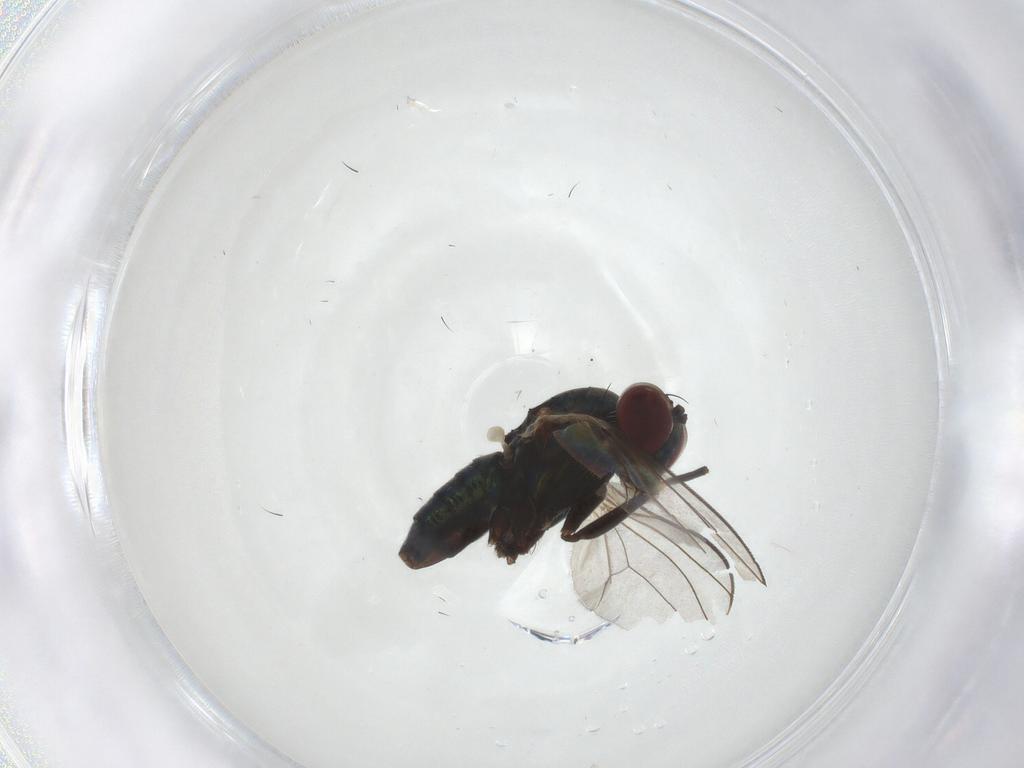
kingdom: Animalia
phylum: Arthropoda
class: Insecta
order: Diptera
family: Dolichopodidae
